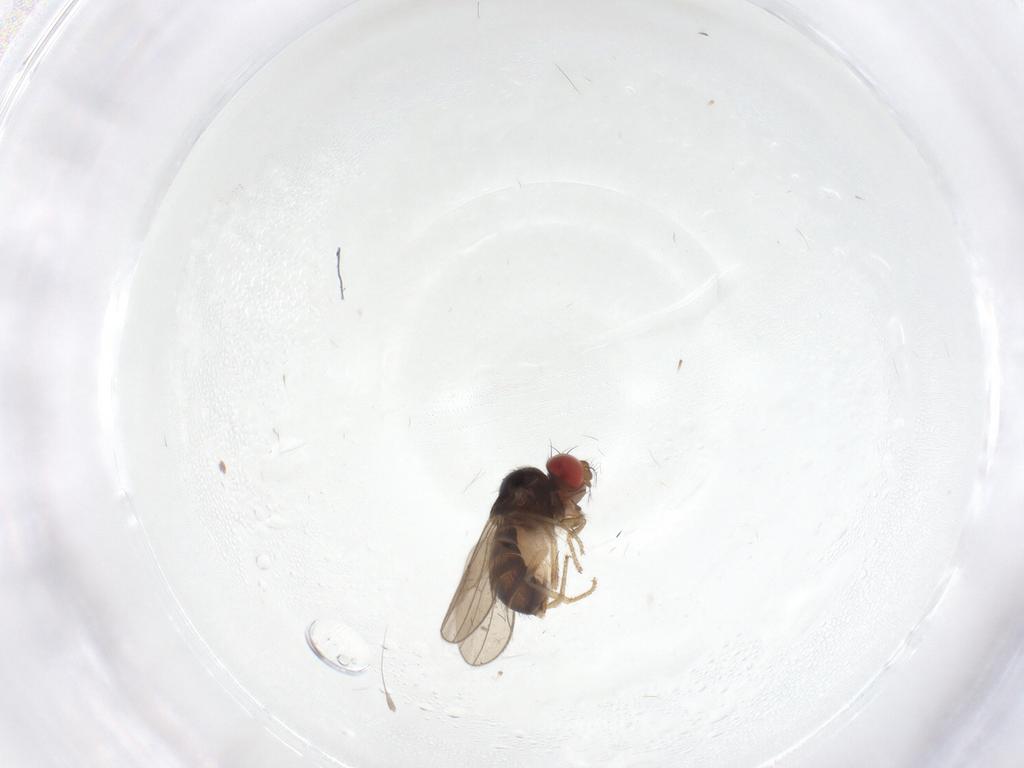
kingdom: Animalia
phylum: Arthropoda
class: Insecta
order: Diptera
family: Drosophilidae
